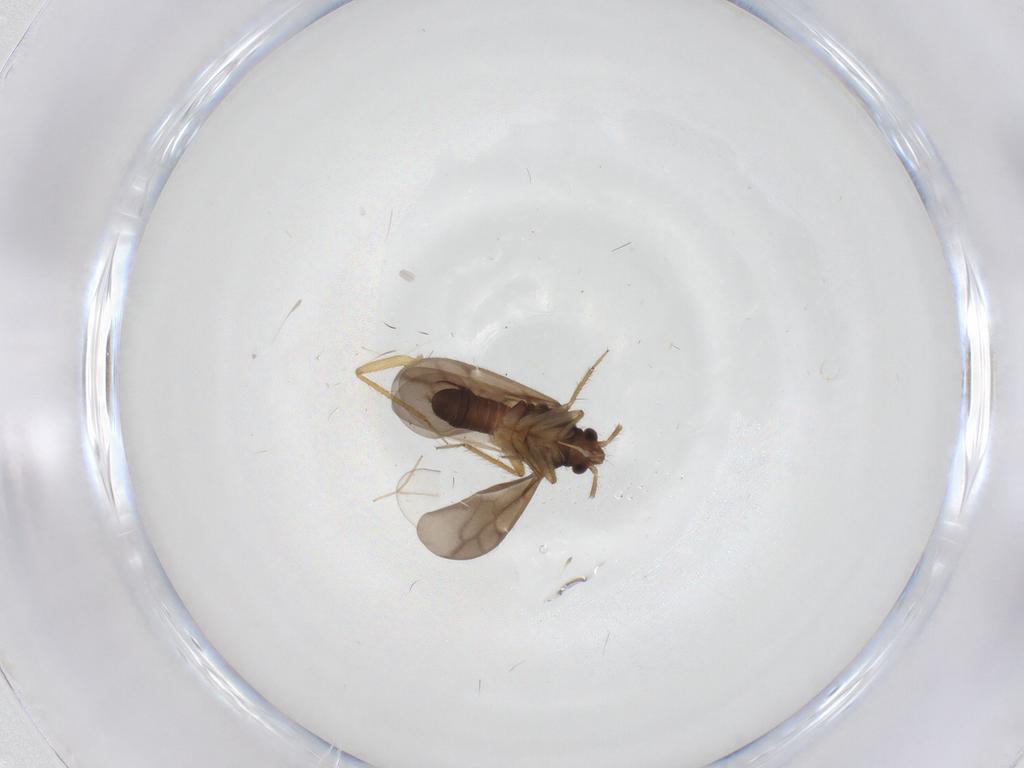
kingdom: Animalia
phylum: Arthropoda
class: Insecta
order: Hemiptera
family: Ceratocombidae
